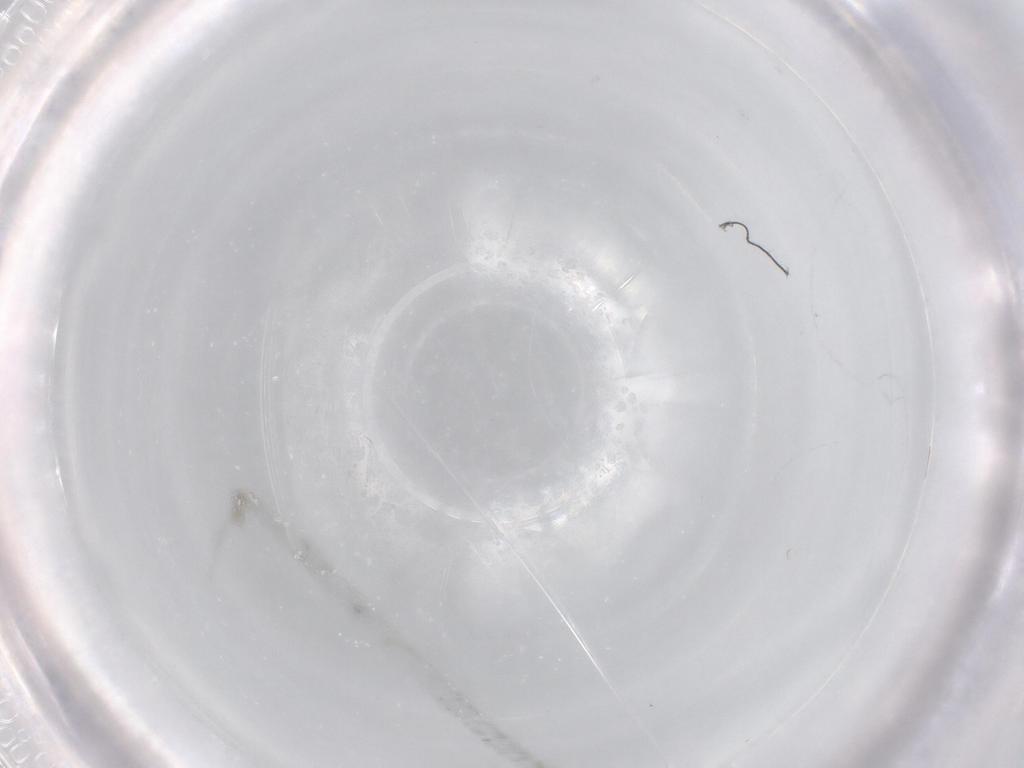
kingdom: Animalia
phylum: Arthropoda
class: Insecta
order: Diptera
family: Cecidomyiidae
